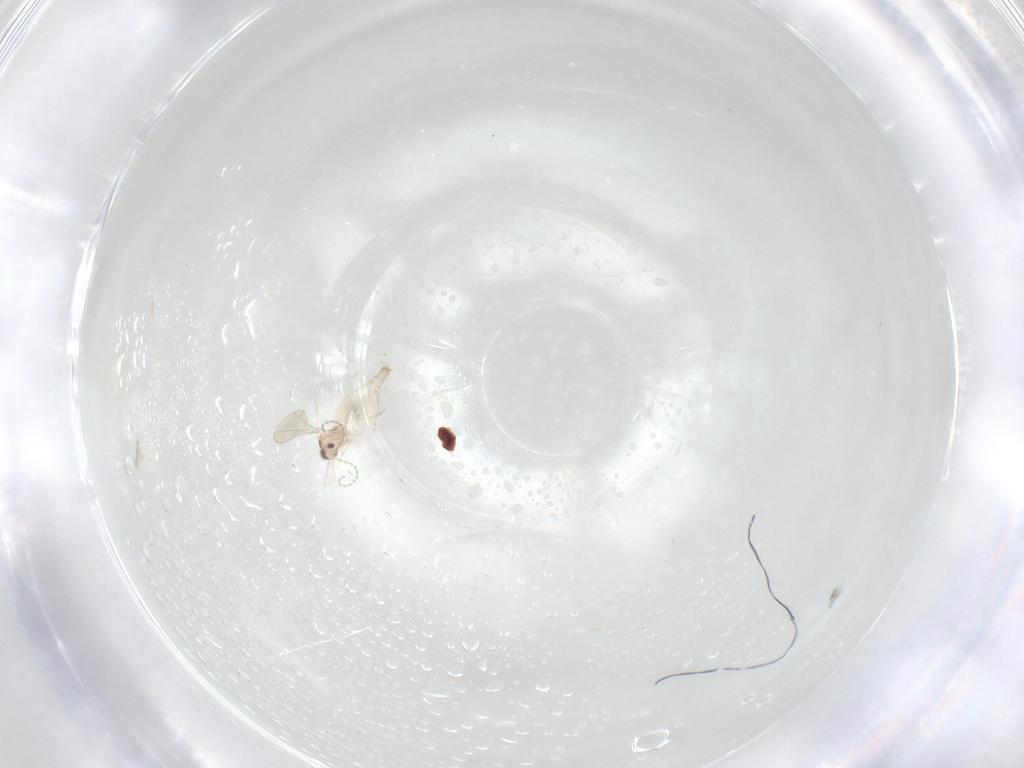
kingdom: Animalia
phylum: Arthropoda
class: Insecta
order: Diptera
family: Cecidomyiidae
